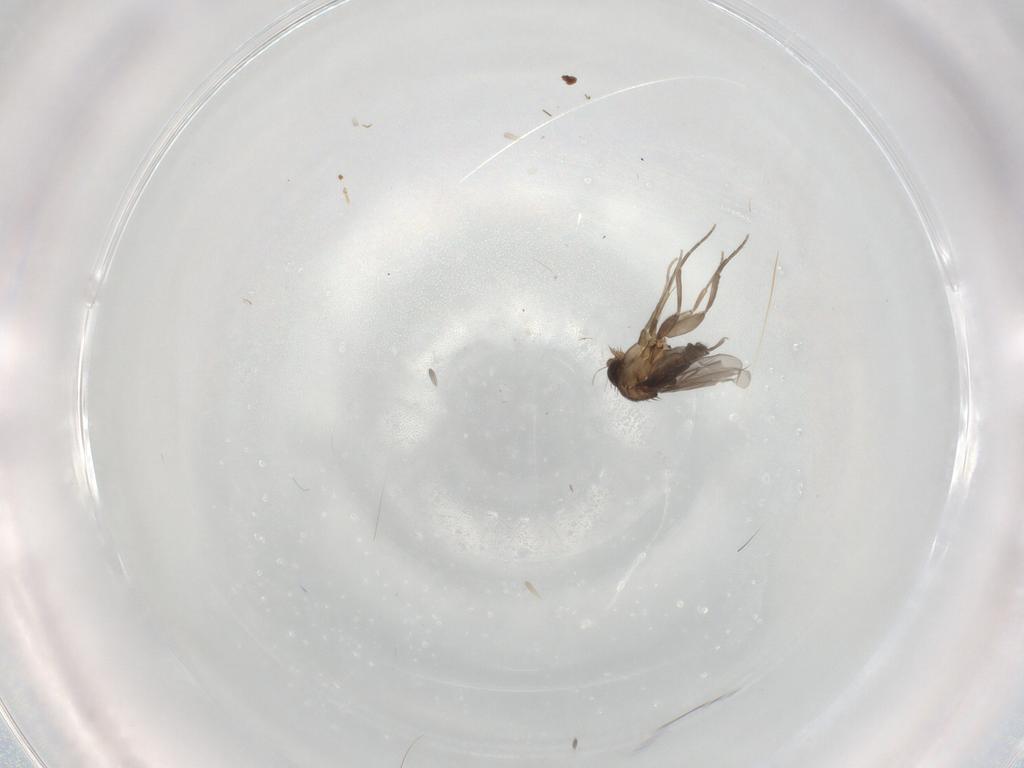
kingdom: Animalia
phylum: Arthropoda
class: Insecta
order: Diptera
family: Phoridae
